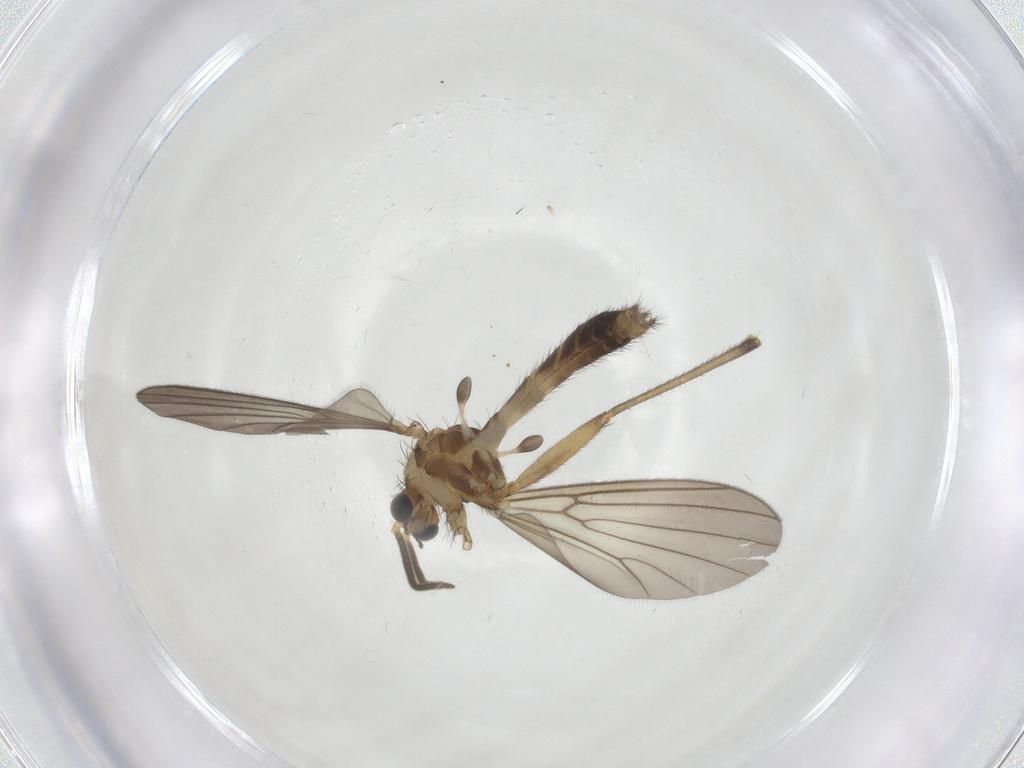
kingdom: Animalia
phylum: Arthropoda
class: Insecta
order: Diptera
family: Mycetophilidae
